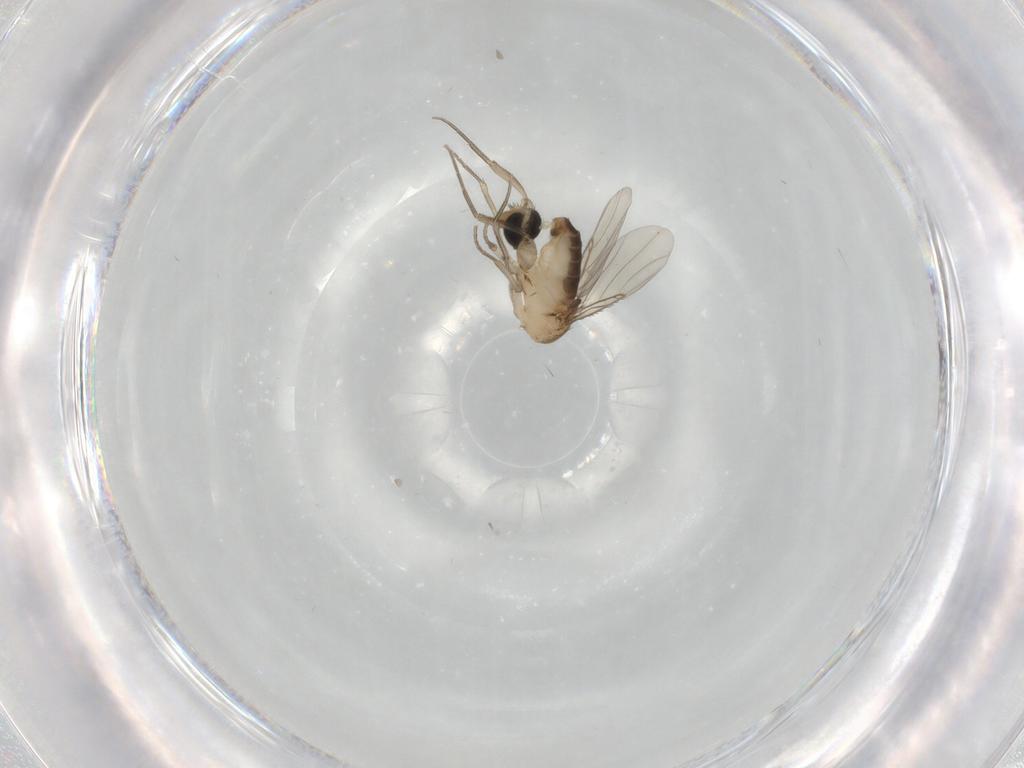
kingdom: Animalia
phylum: Arthropoda
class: Insecta
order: Diptera
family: Phoridae
